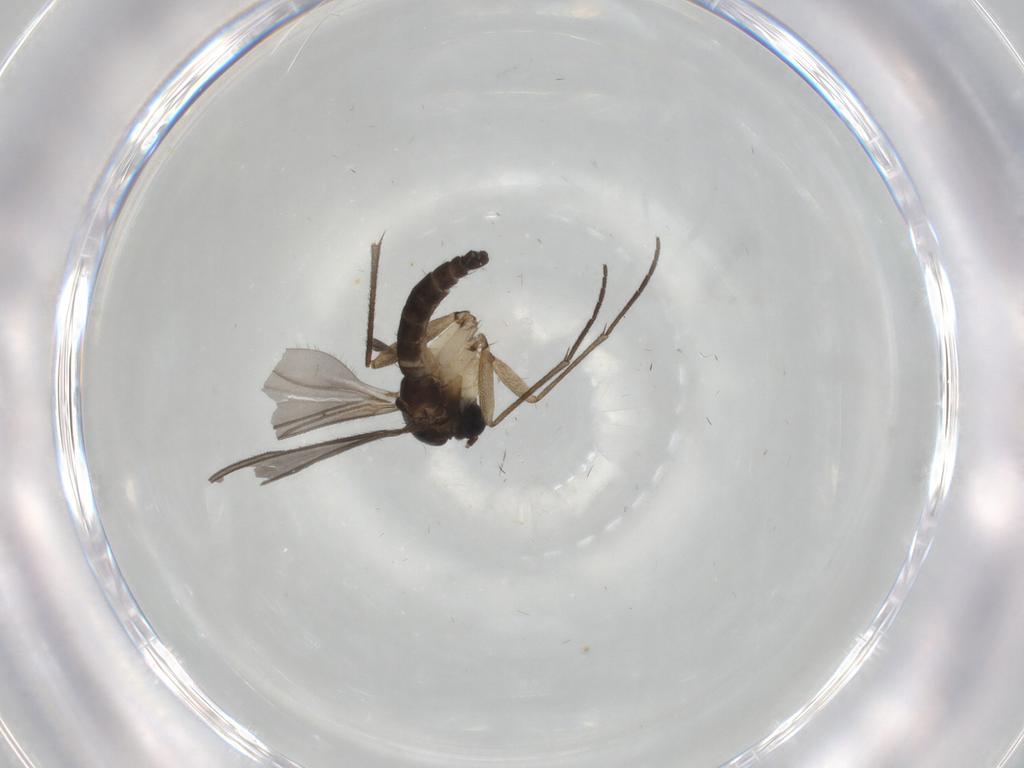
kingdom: Animalia
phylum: Arthropoda
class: Insecta
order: Diptera
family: Sciaridae
